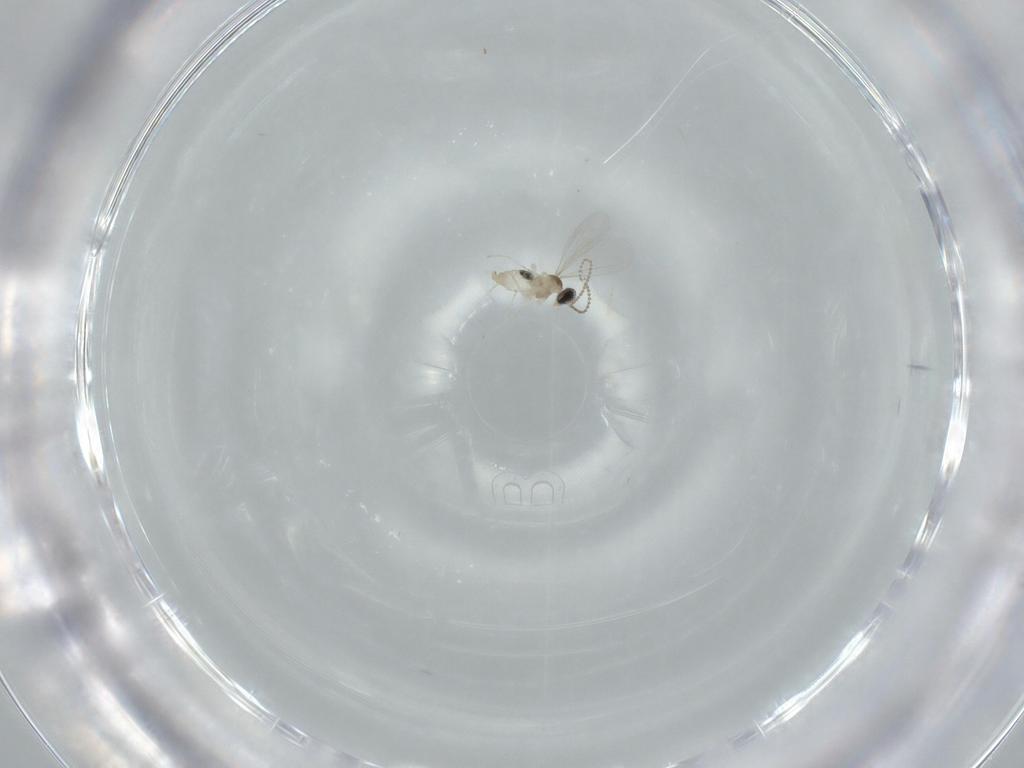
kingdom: Animalia
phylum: Arthropoda
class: Insecta
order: Diptera
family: Cecidomyiidae
